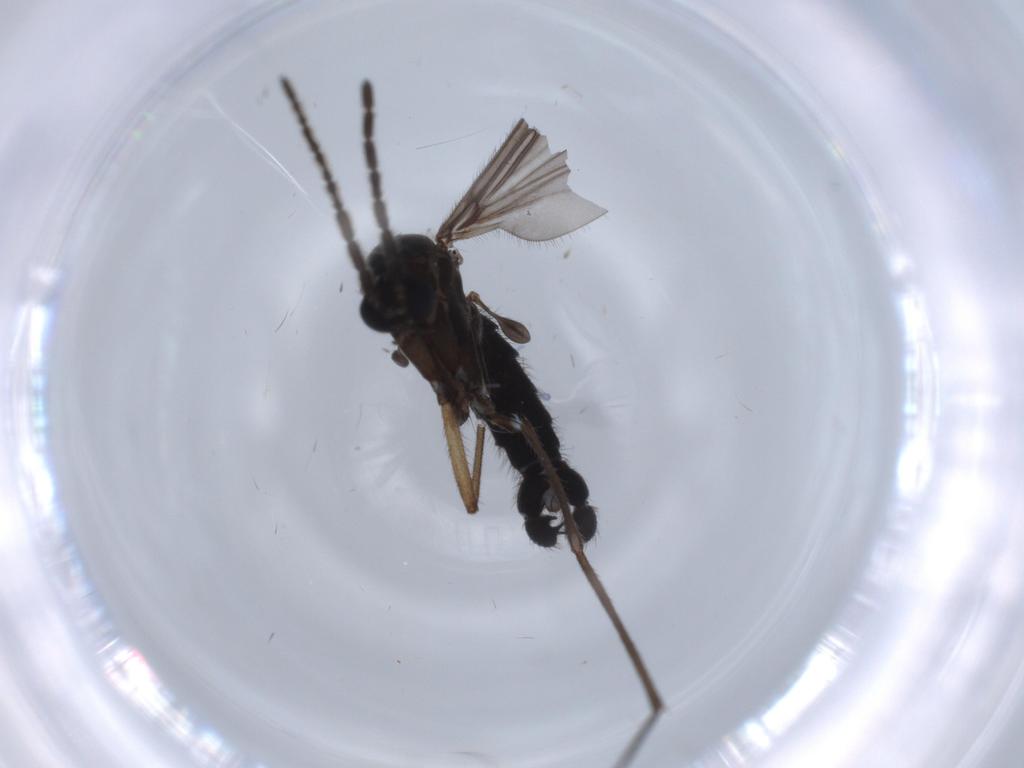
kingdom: Animalia
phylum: Arthropoda
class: Insecta
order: Diptera
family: Sciaridae
